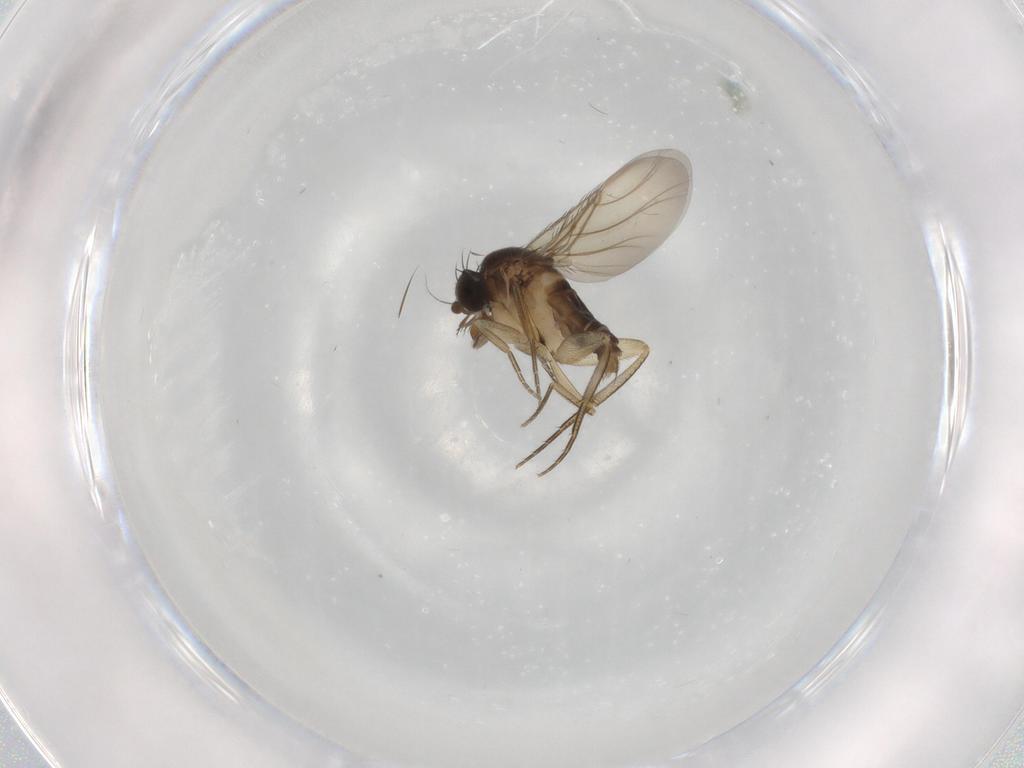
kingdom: Animalia
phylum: Arthropoda
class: Insecta
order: Diptera
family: Phoridae
